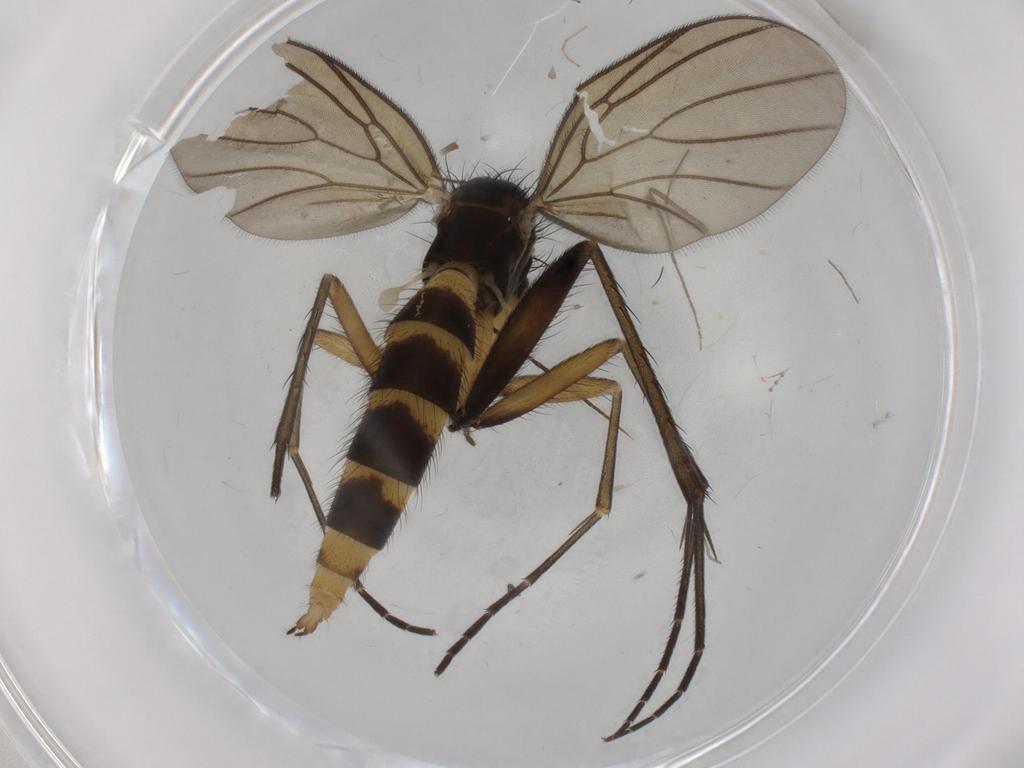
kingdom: Animalia
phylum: Arthropoda
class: Insecta
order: Diptera
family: Mycetophilidae
